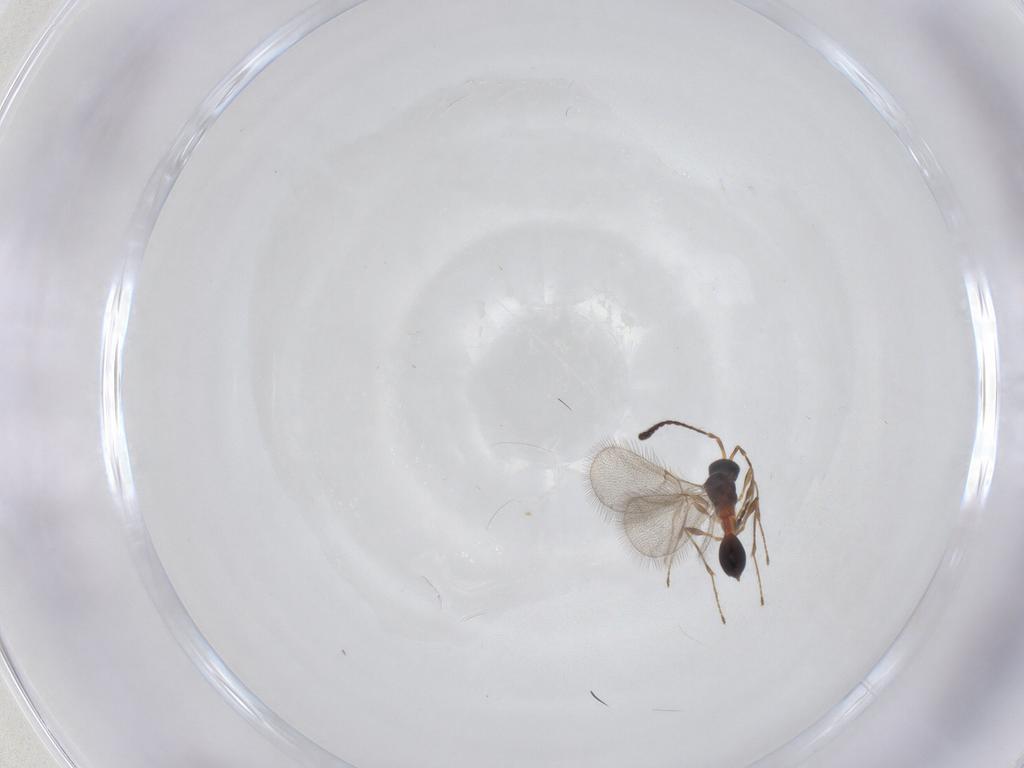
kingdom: Animalia
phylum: Arthropoda
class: Insecta
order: Hymenoptera
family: Diapriidae
